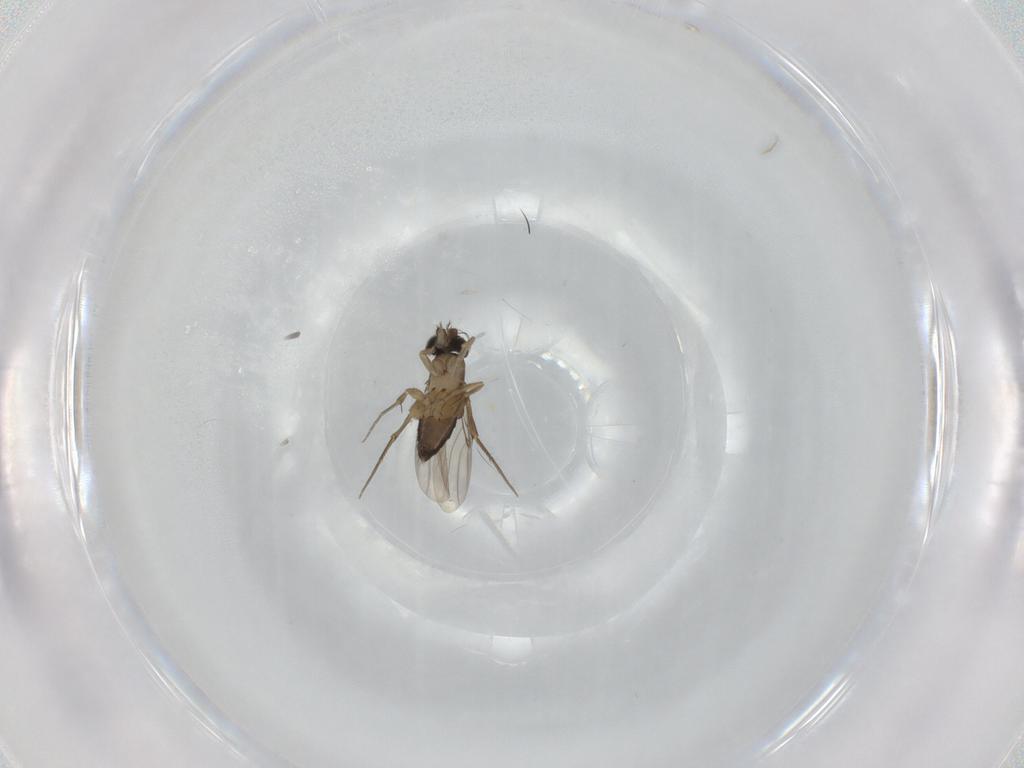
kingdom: Animalia
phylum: Arthropoda
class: Insecta
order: Diptera
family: Phoridae
